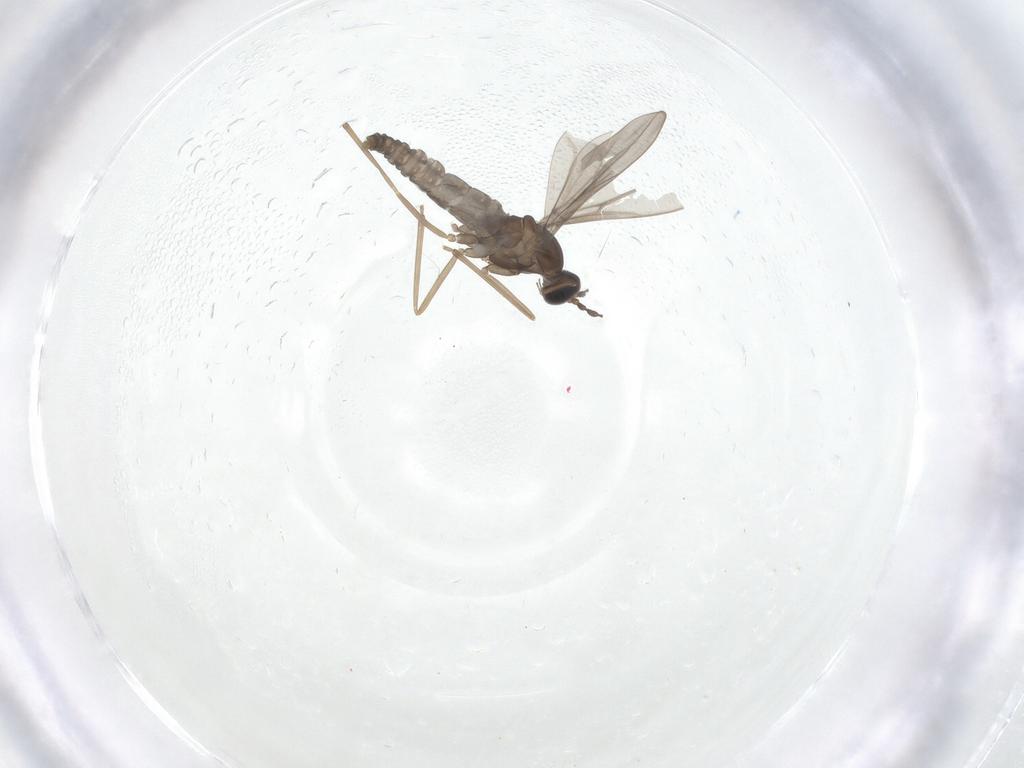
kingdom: Animalia
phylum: Arthropoda
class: Insecta
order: Diptera
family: Cecidomyiidae
